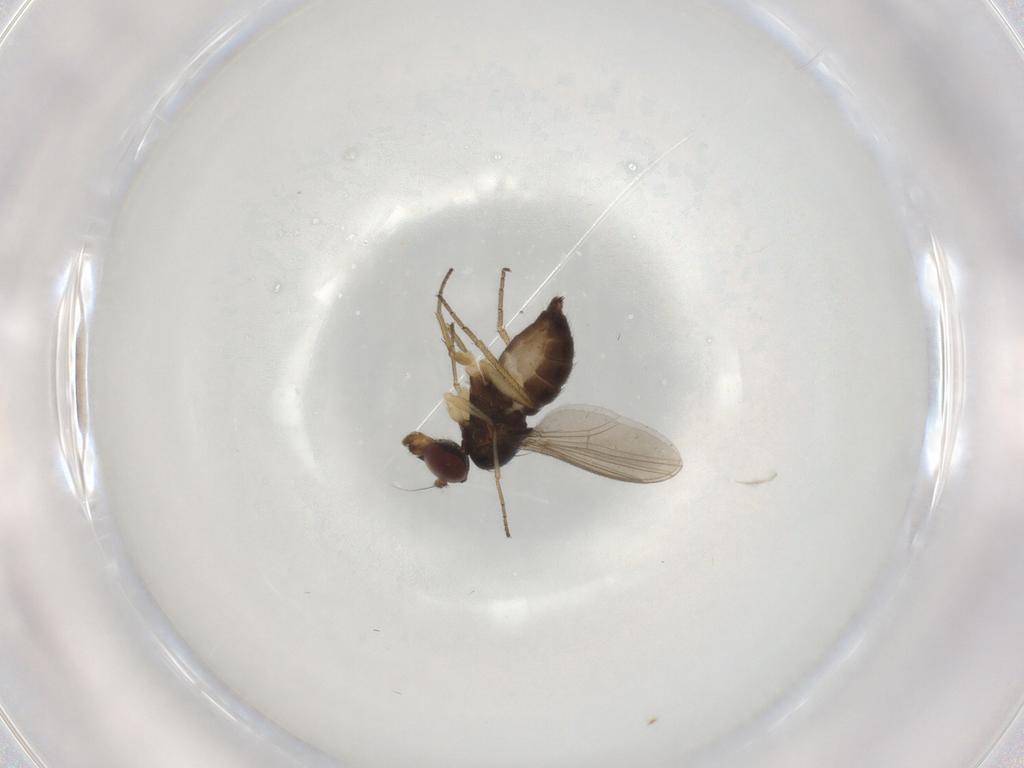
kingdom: Animalia
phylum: Arthropoda
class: Insecta
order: Diptera
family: Dolichopodidae
